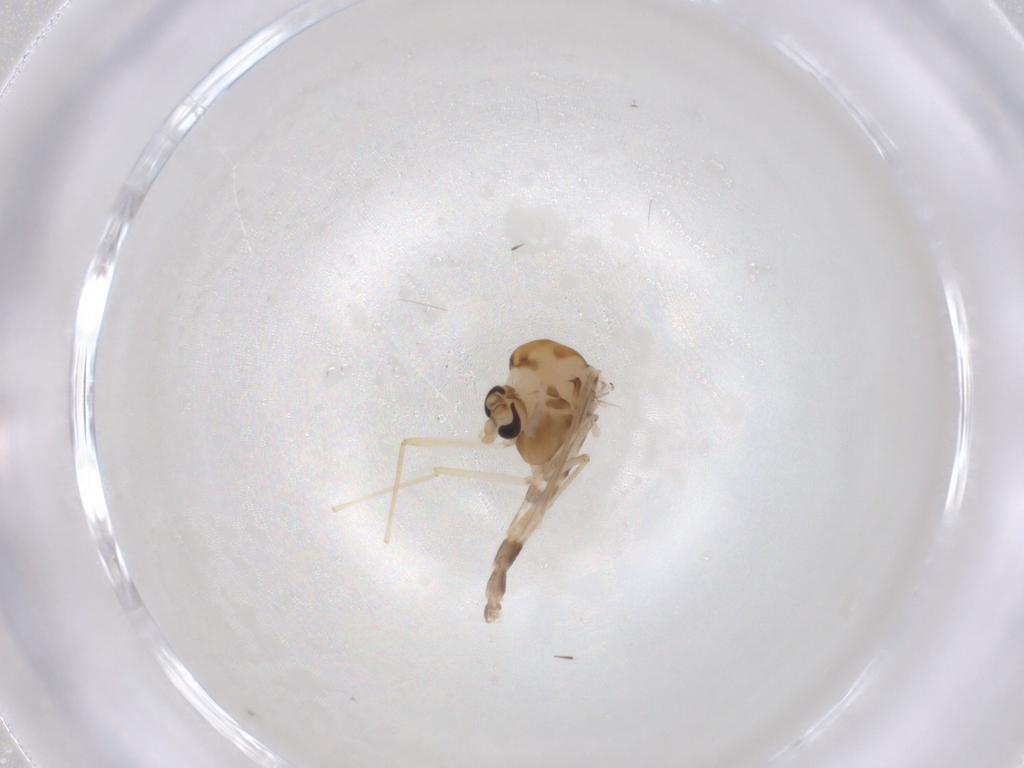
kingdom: Animalia
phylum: Arthropoda
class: Insecta
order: Diptera
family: Chironomidae
